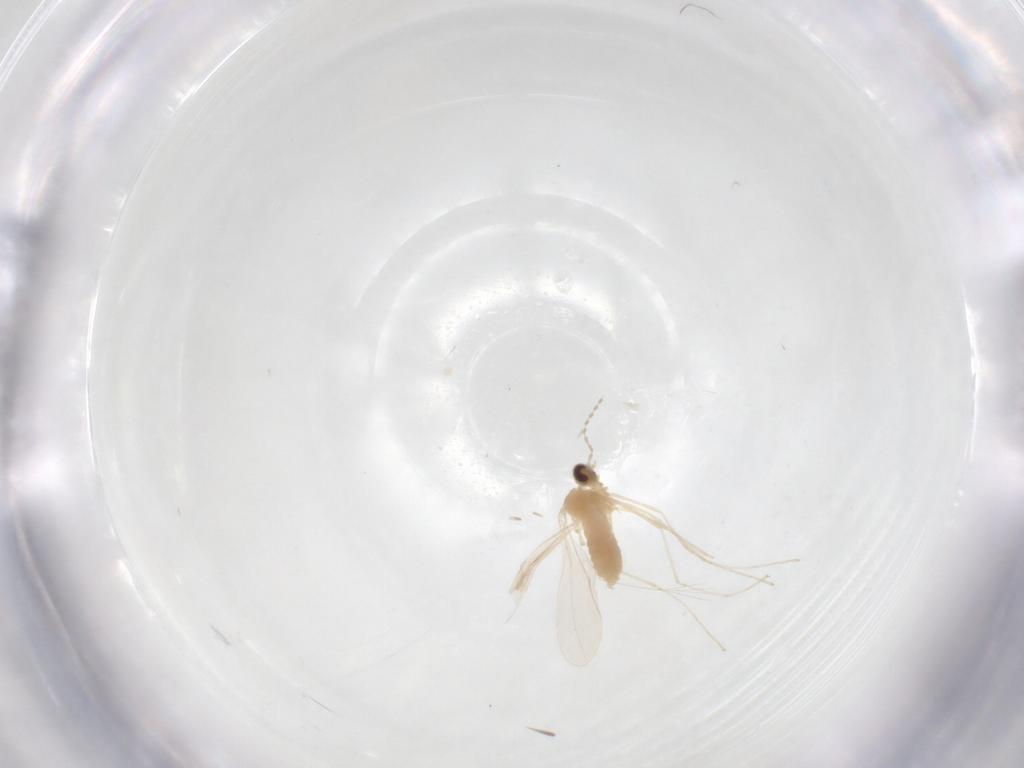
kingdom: Animalia
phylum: Arthropoda
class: Insecta
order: Diptera
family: Cecidomyiidae
